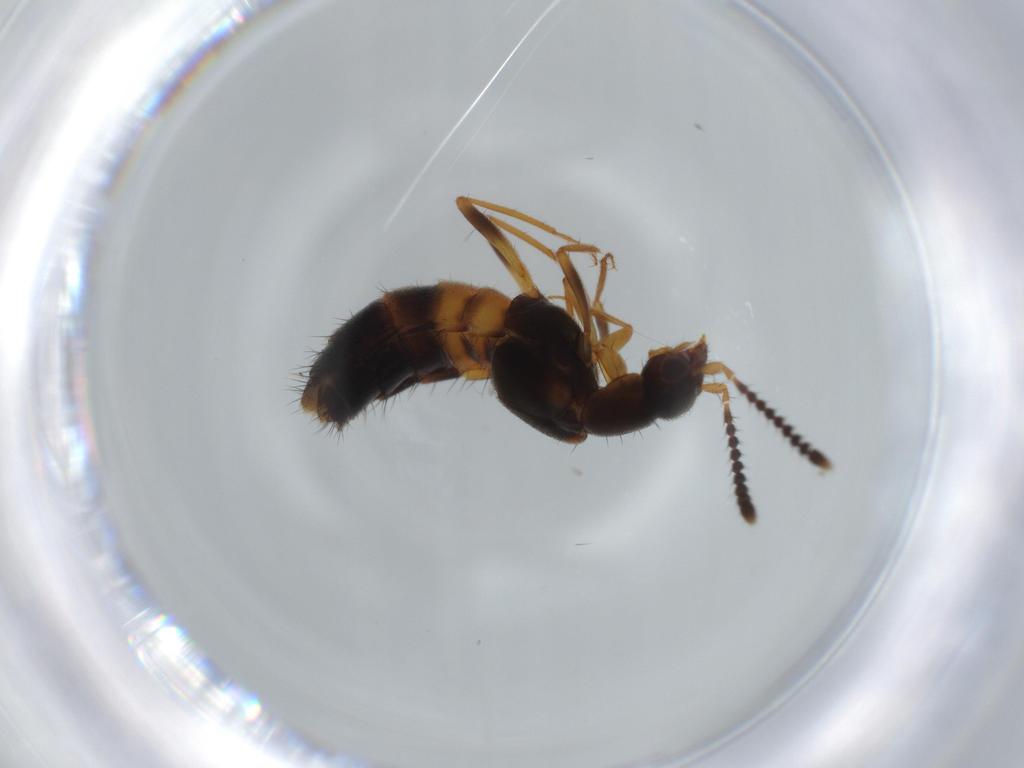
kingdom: Animalia
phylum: Arthropoda
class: Insecta
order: Coleoptera
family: Staphylinidae
